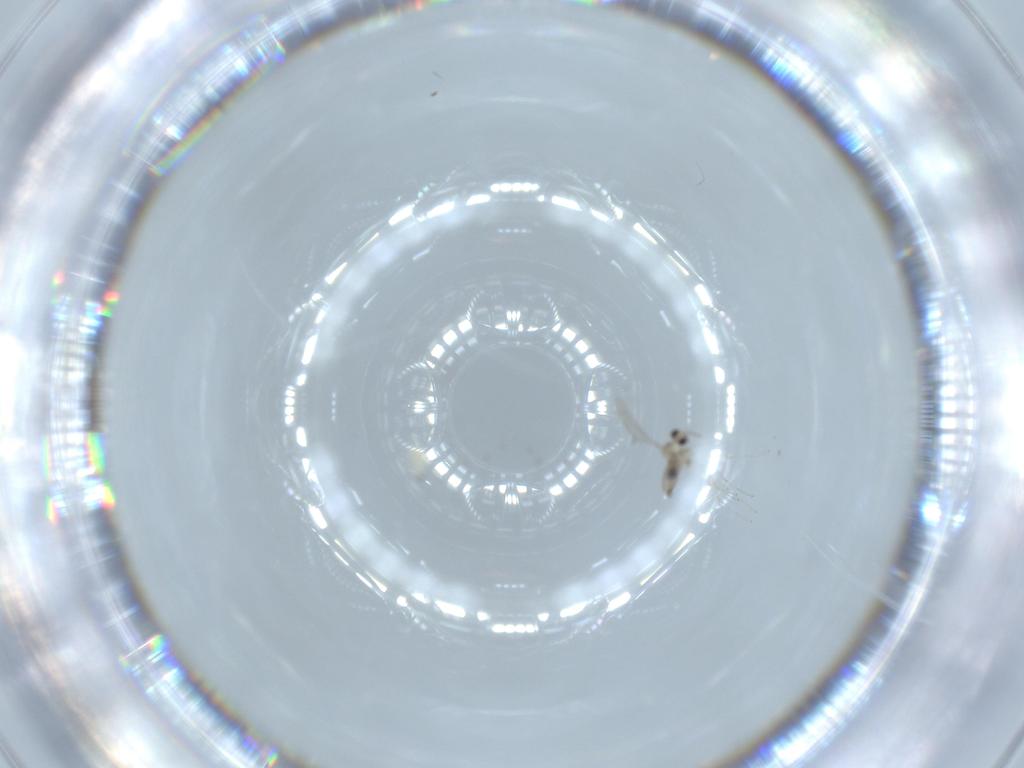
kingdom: Animalia
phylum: Arthropoda
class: Insecta
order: Diptera
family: Cecidomyiidae
